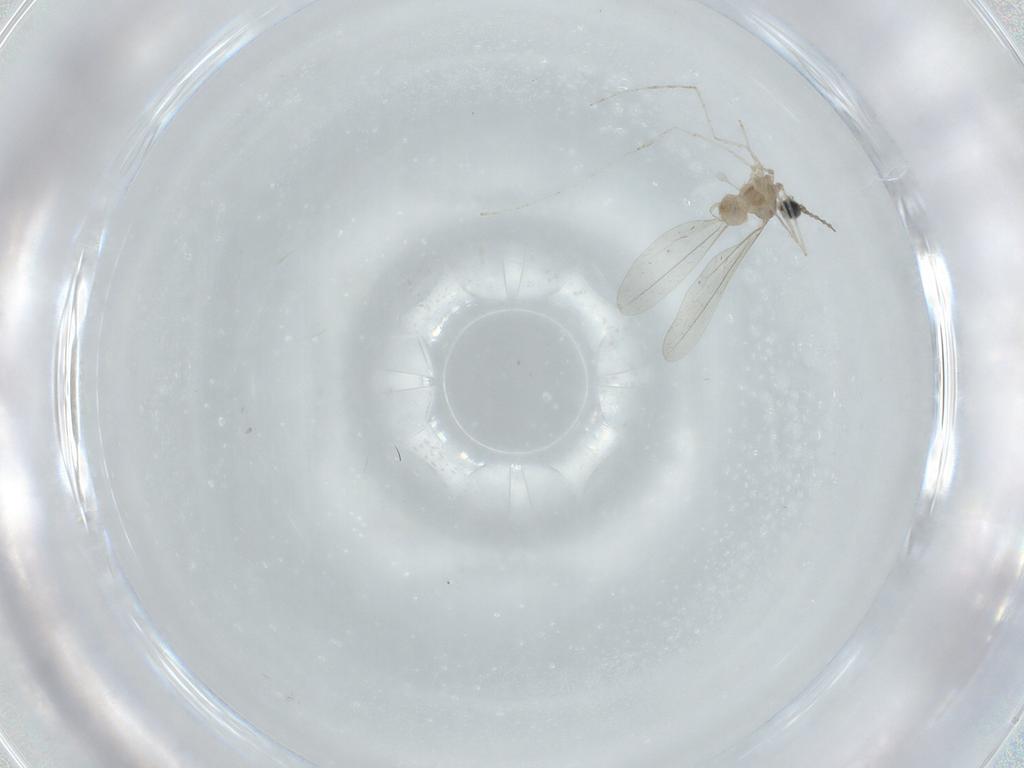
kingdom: Animalia
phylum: Arthropoda
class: Insecta
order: Diptera
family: Cecidomyiidae
